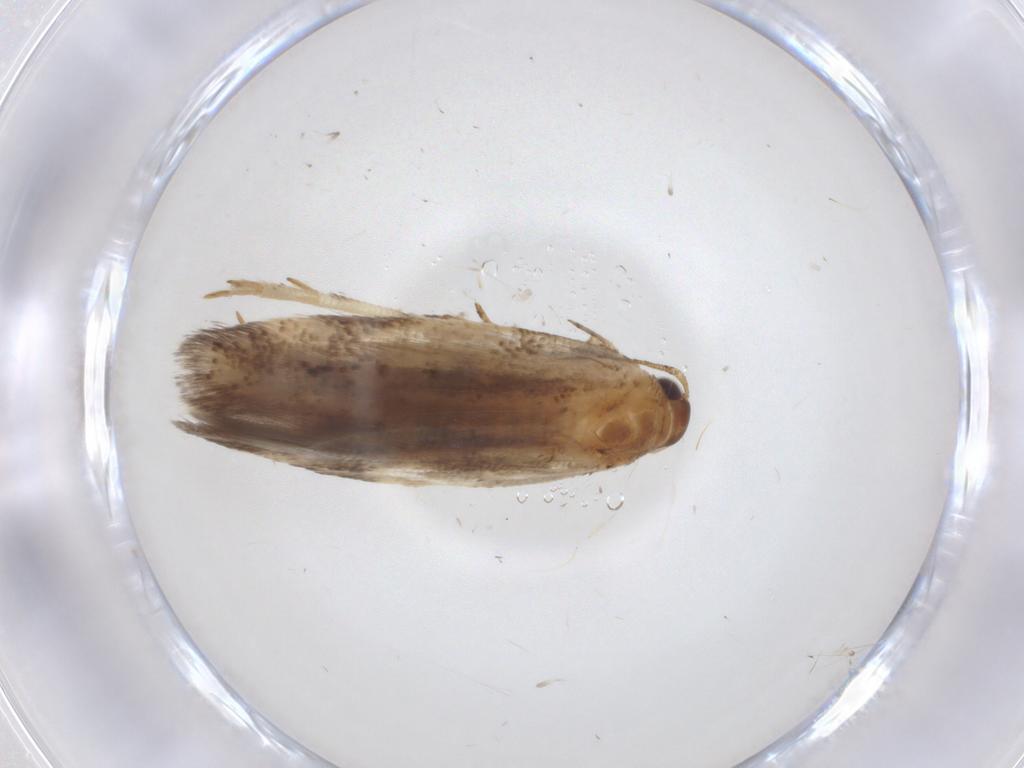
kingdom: Animalia
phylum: Arthropoda
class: Insecta
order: Lepidoptera
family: Gelechiidae
